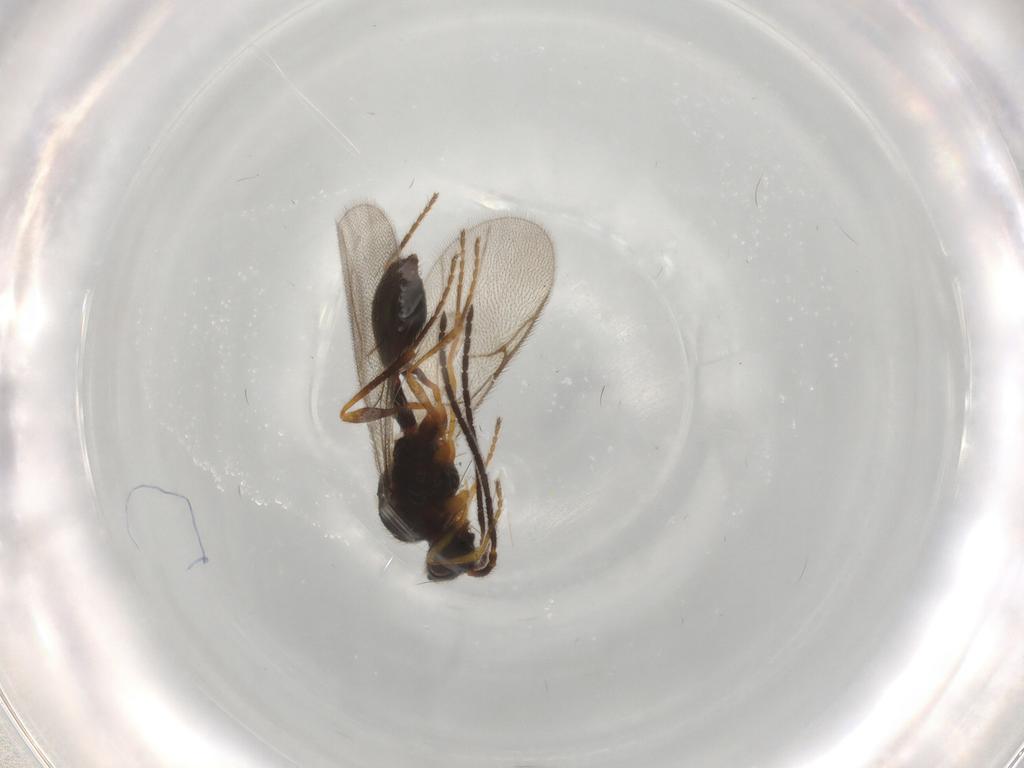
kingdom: Animalia
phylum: Arthropoda
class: Insecta
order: Hymenoptera
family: Scoliidae
